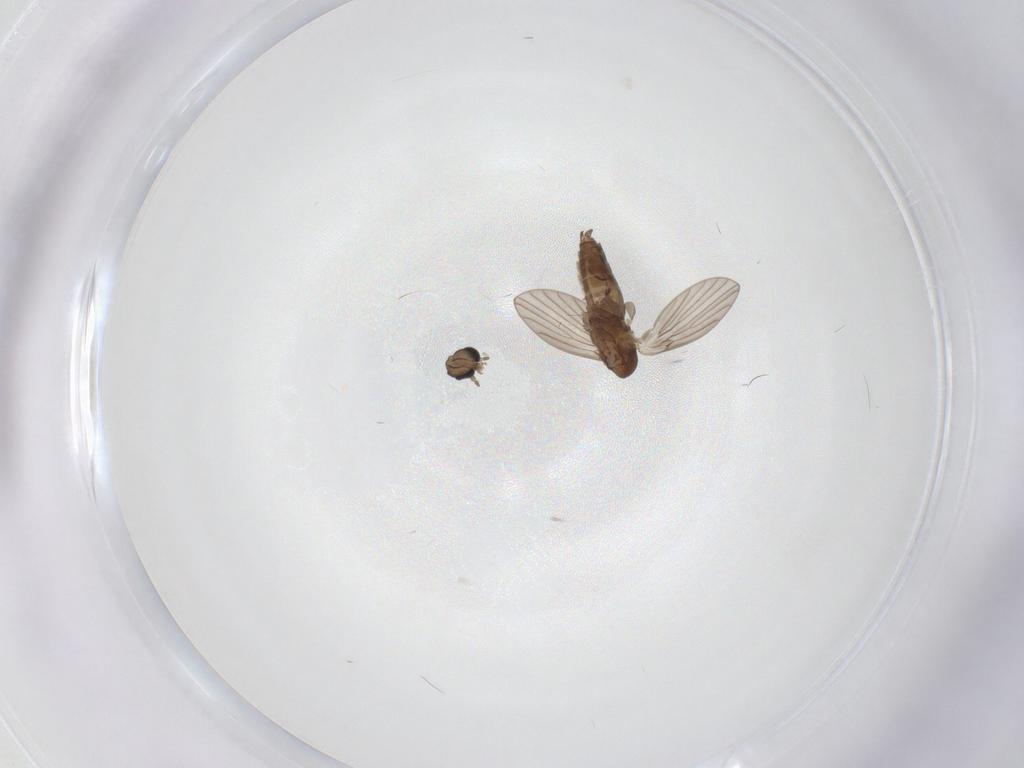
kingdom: Animalia
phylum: Arthropoda
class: Insecta
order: Diptera
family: Stratiomyidae
